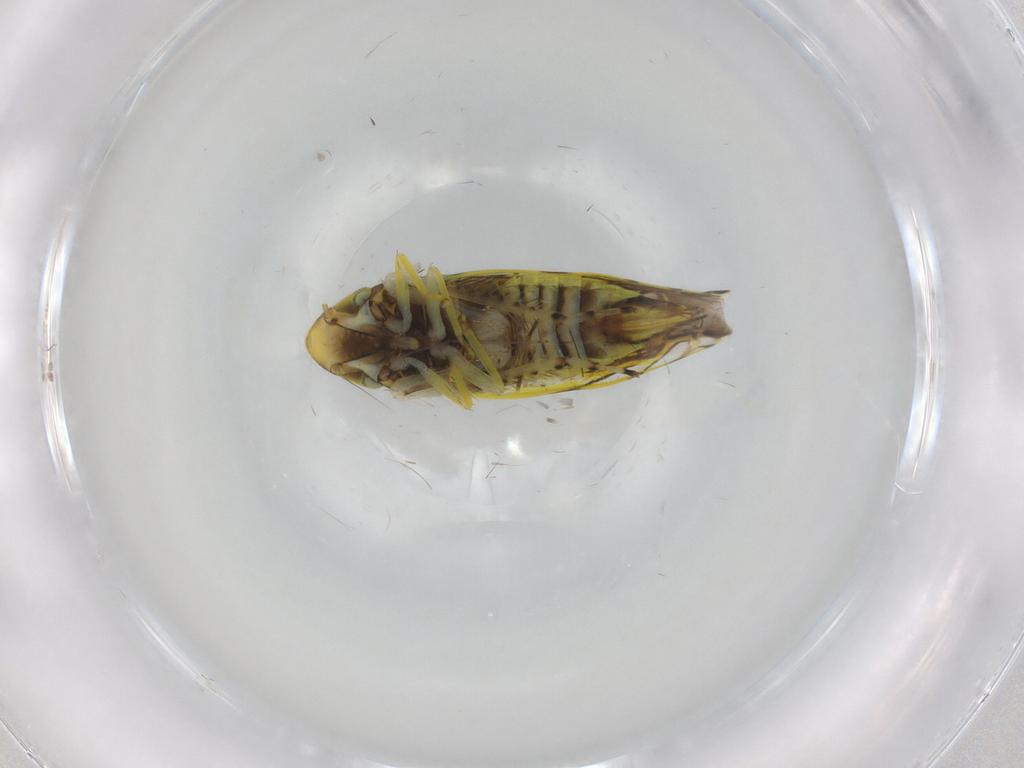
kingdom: Animalia
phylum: Arthropoda
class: Insecta
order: Hemiptera
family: Cicadellidae
